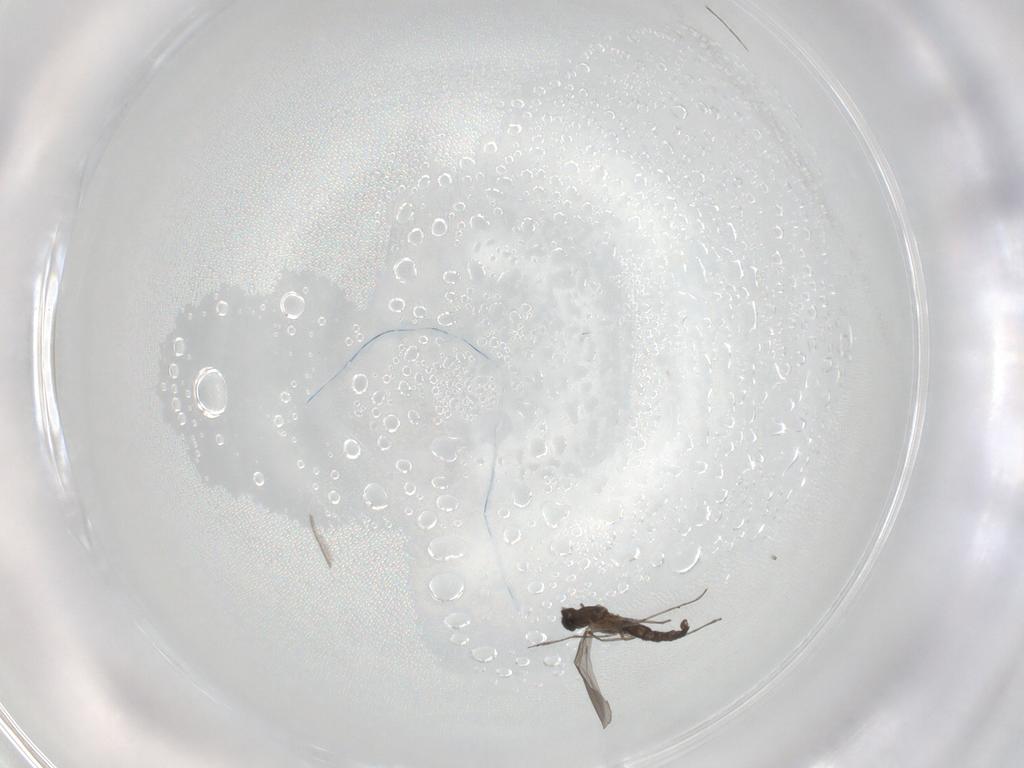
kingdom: Animalia
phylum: Arthropoda
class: Insecta
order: Diptera
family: Cecidomyiidae
